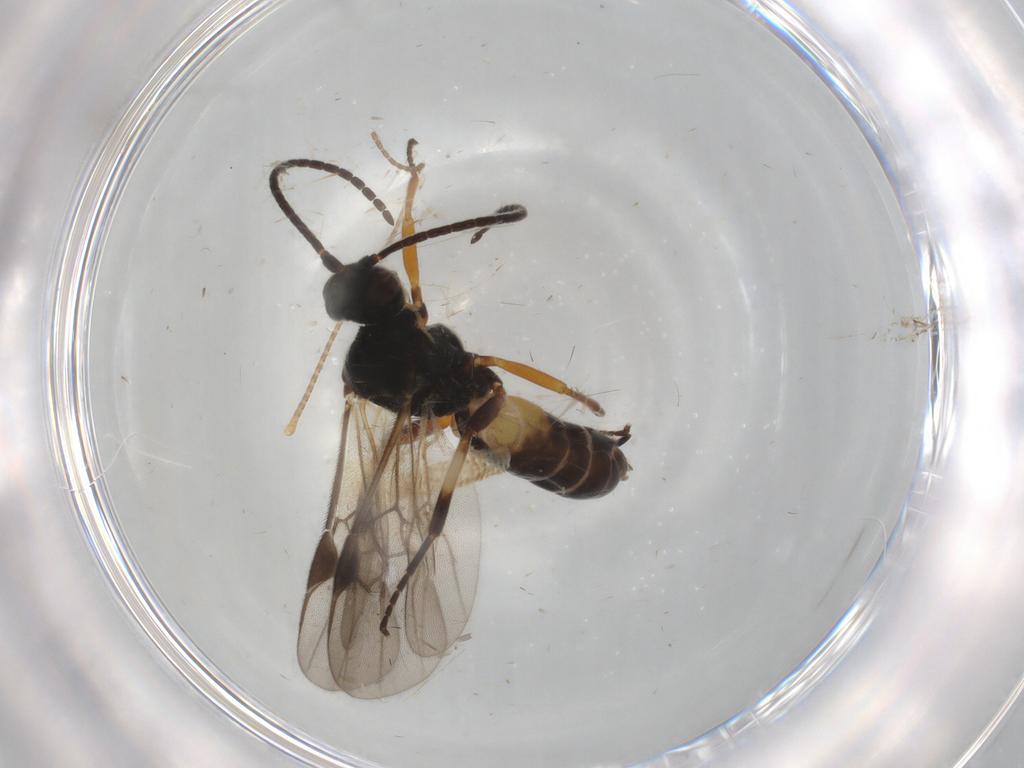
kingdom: Animalia
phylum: Arthropoda
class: Insecta
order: Hymenoptera
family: Braconidae
